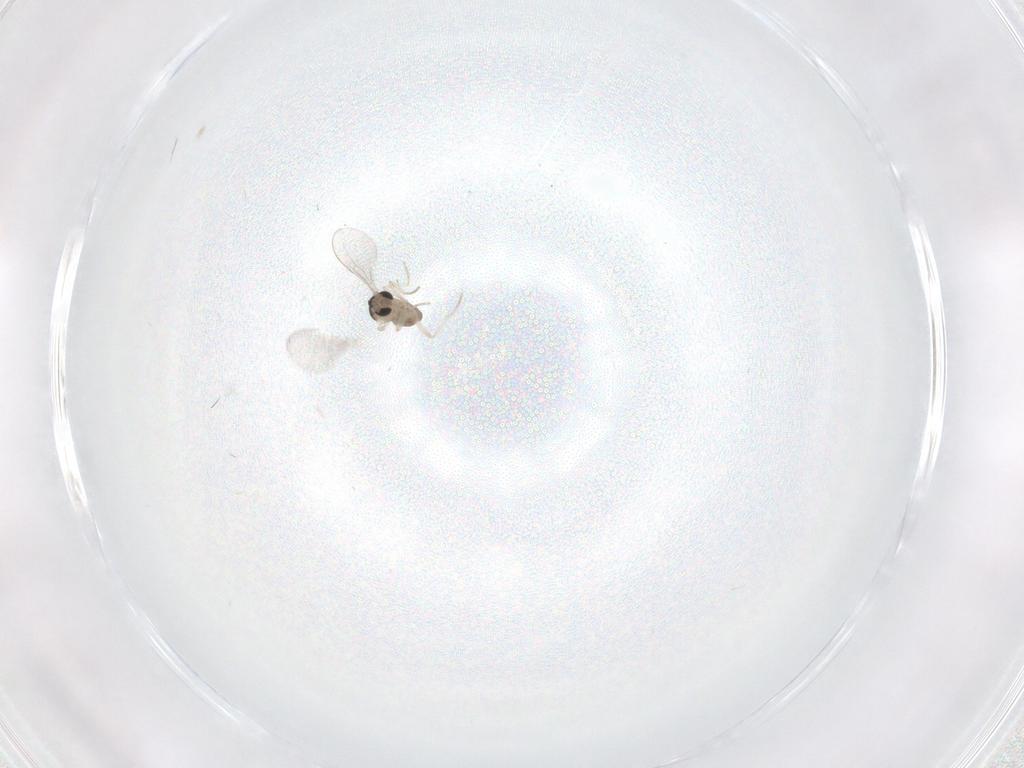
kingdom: Animalia
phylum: Arthropoda
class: Insecta
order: Diptera
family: Cecidomyiidae
